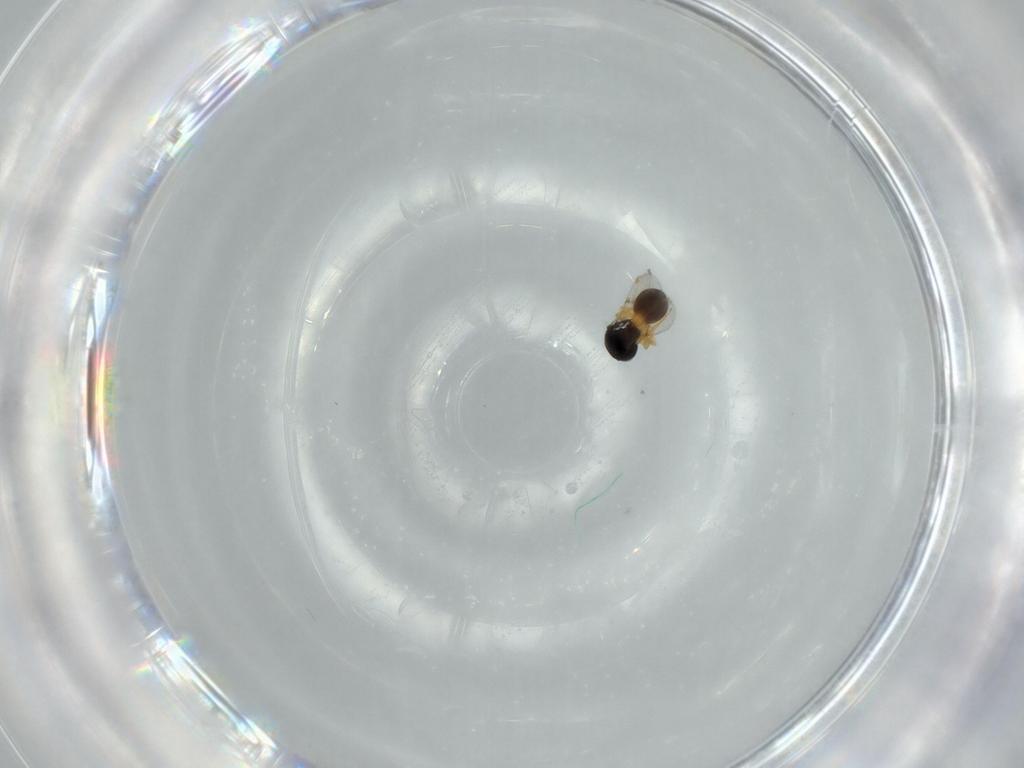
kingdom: Animalia
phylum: Arthropoda
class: Insecta
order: Hymenoptera
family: Scelionidae
